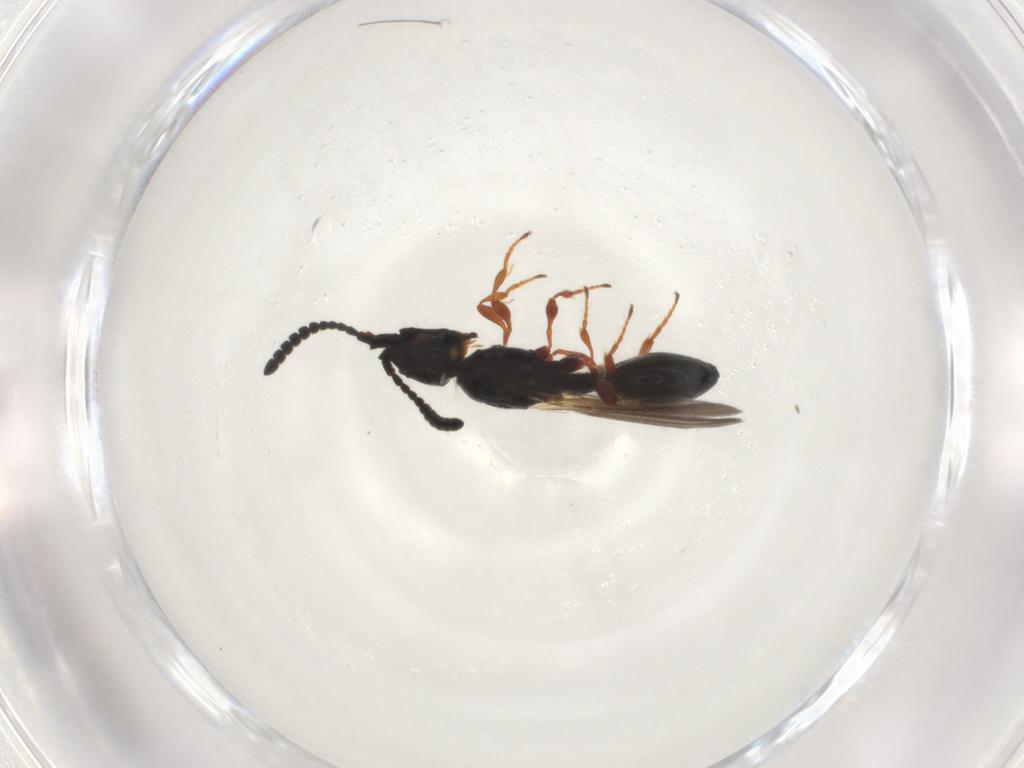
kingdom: Animalia
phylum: Arthropoda
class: Insecta
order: Hymenoptera
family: Diapriidae
